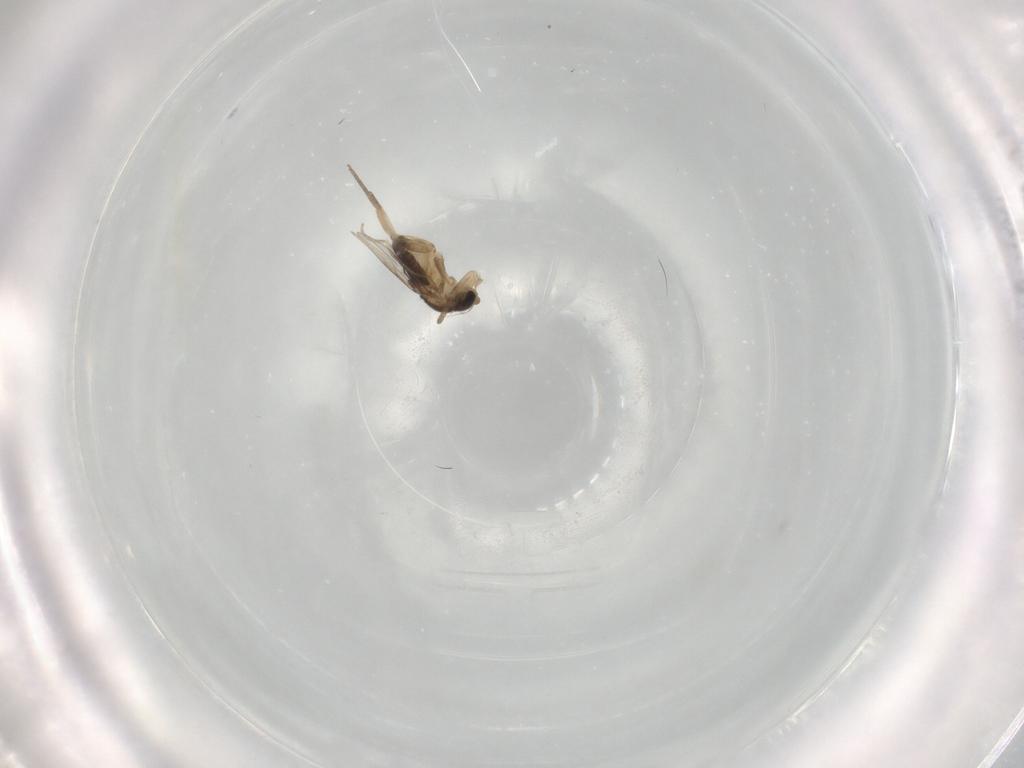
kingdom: Animalia
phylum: Arthropoda
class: Insecta
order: Diptera
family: Phoridae
